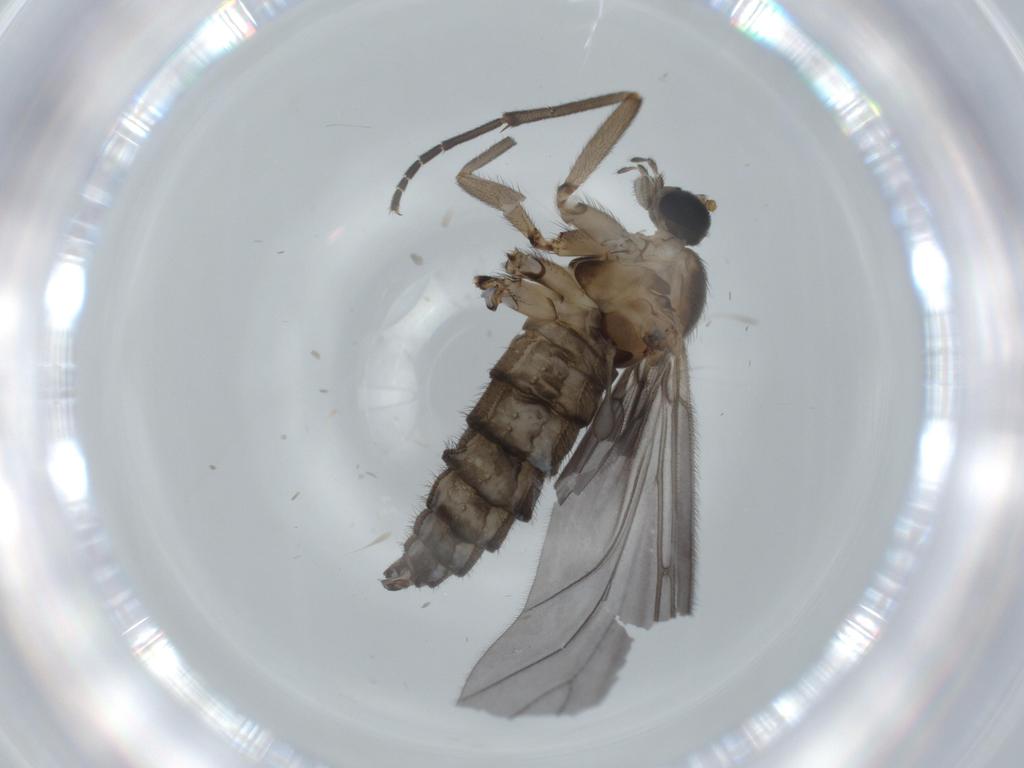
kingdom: Animalia
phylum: Arthropoda
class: Insecta
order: Diptera
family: Sciaridae
